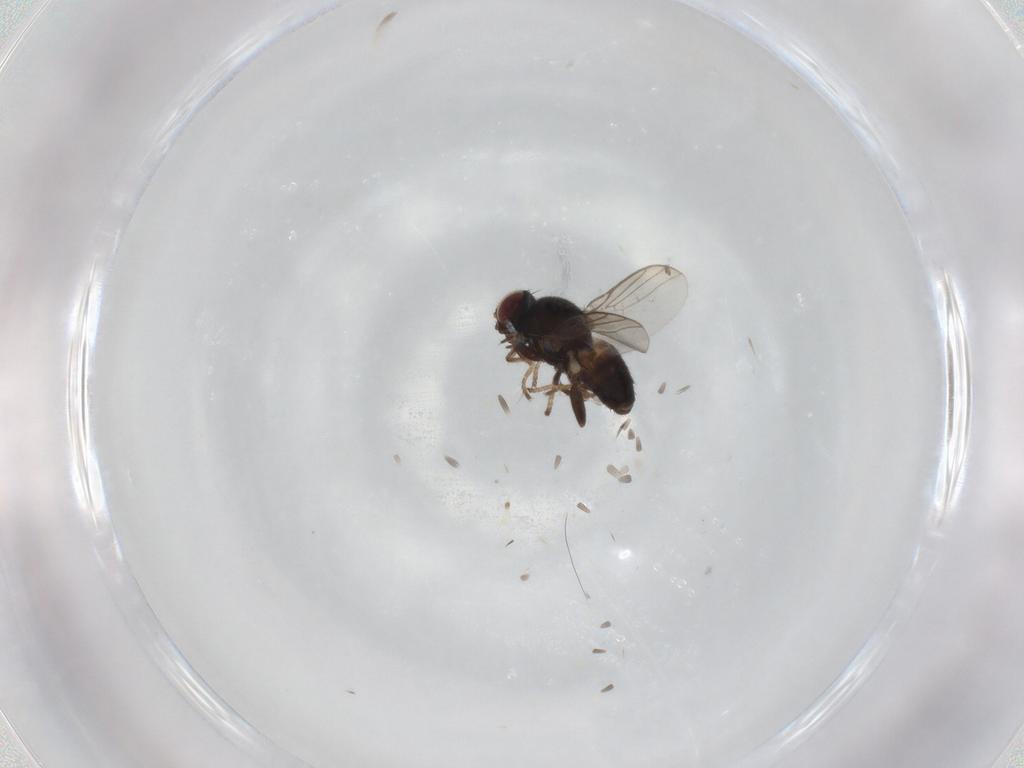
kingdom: Animalia
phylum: Arthropoda
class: Insecta
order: Diptera
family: Chloropidae
